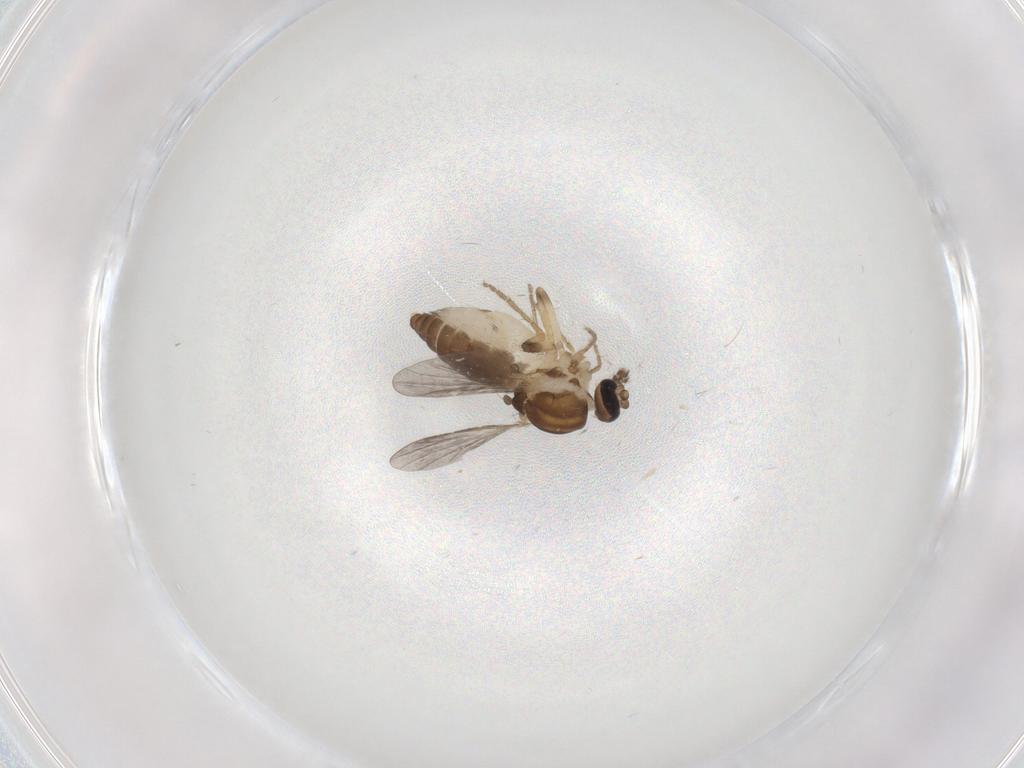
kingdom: Animalia
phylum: Arthropoda
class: Insecta
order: Diptera
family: Ceratopogonidae
